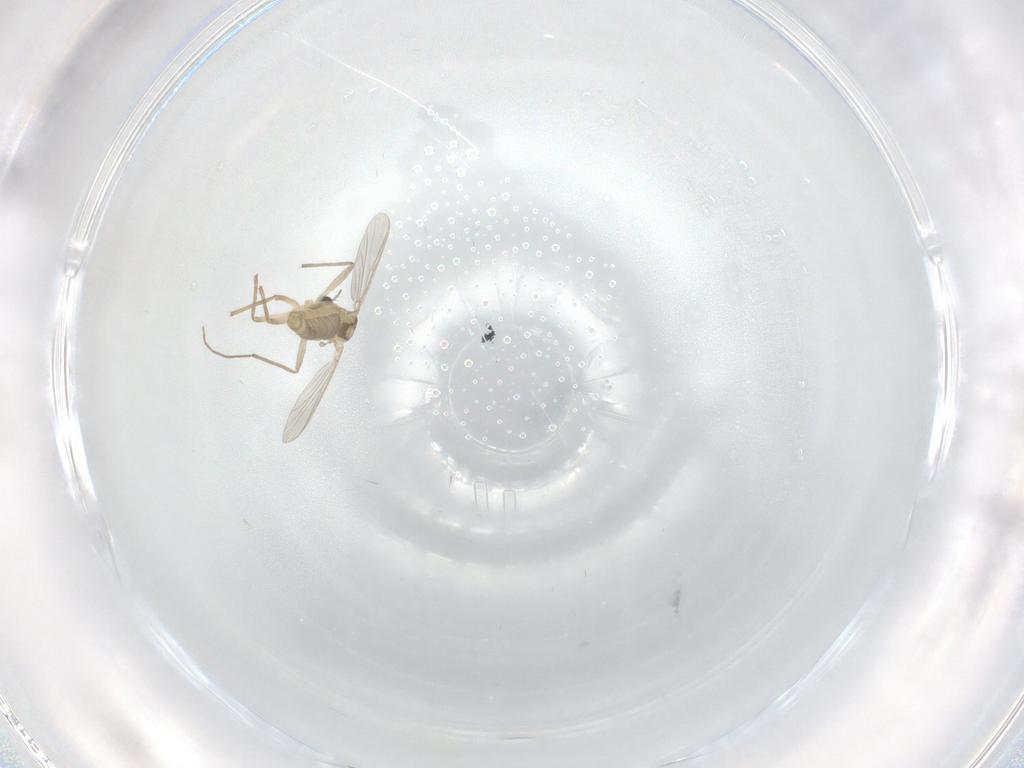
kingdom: Animalia
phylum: Arthropoda
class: Insecta
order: Diptera
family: Chironomidae
